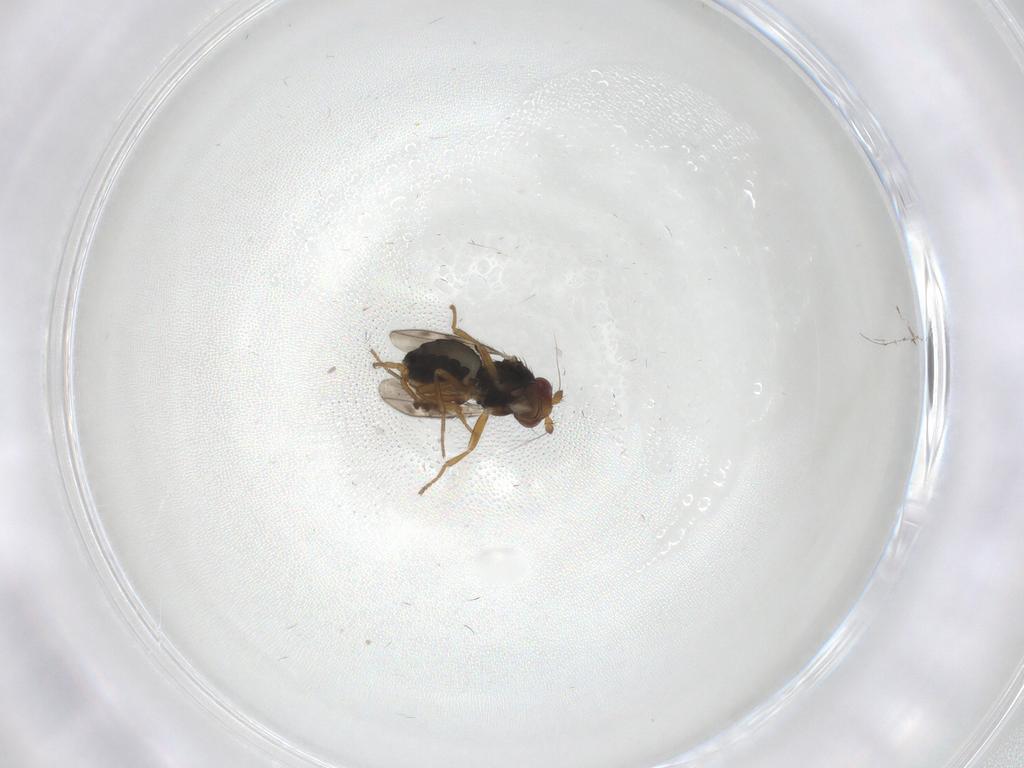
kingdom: Animalia
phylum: Arthropoda
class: Insecta
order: Diptera
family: Sphaeroceridae
